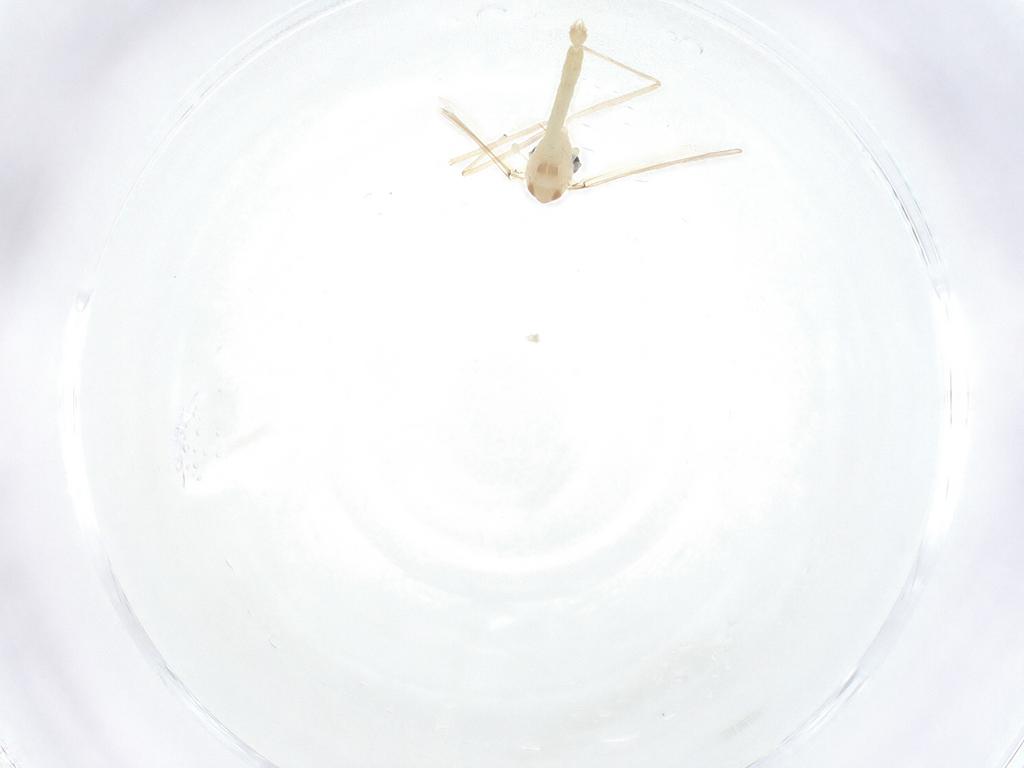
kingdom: Animalia
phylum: Arthropoda
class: Insecta
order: Diptera
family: Chironomidae
